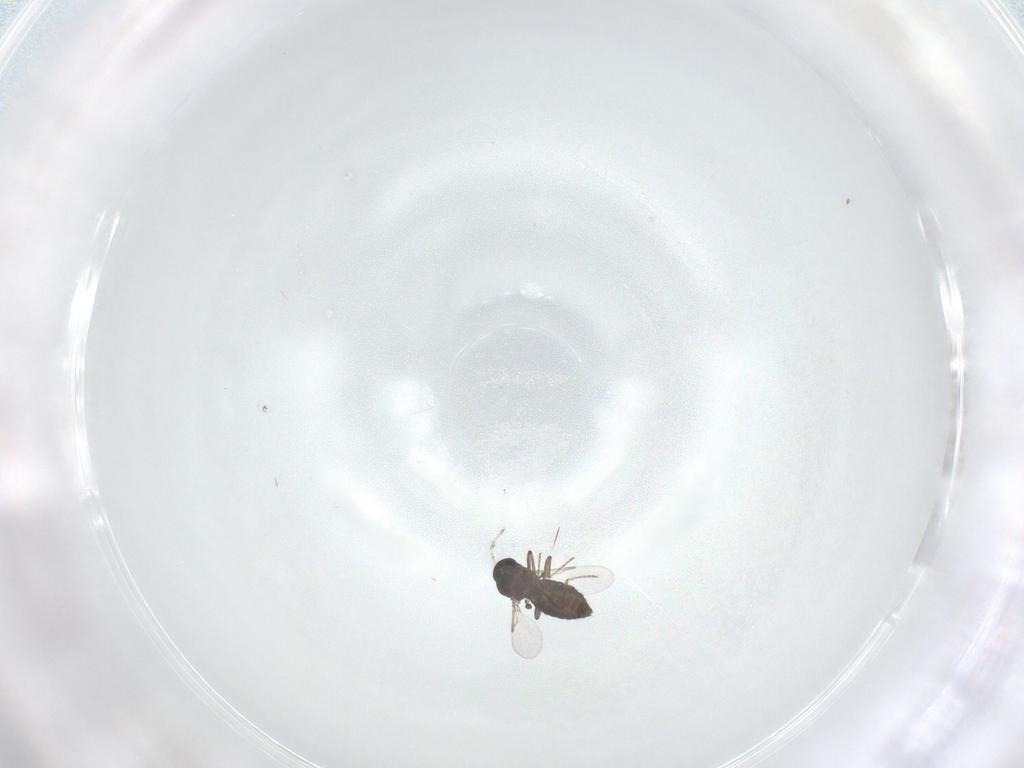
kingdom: Animalia
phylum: Arthropoda
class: Insecta
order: Diptera
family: Ceratopogonidae
